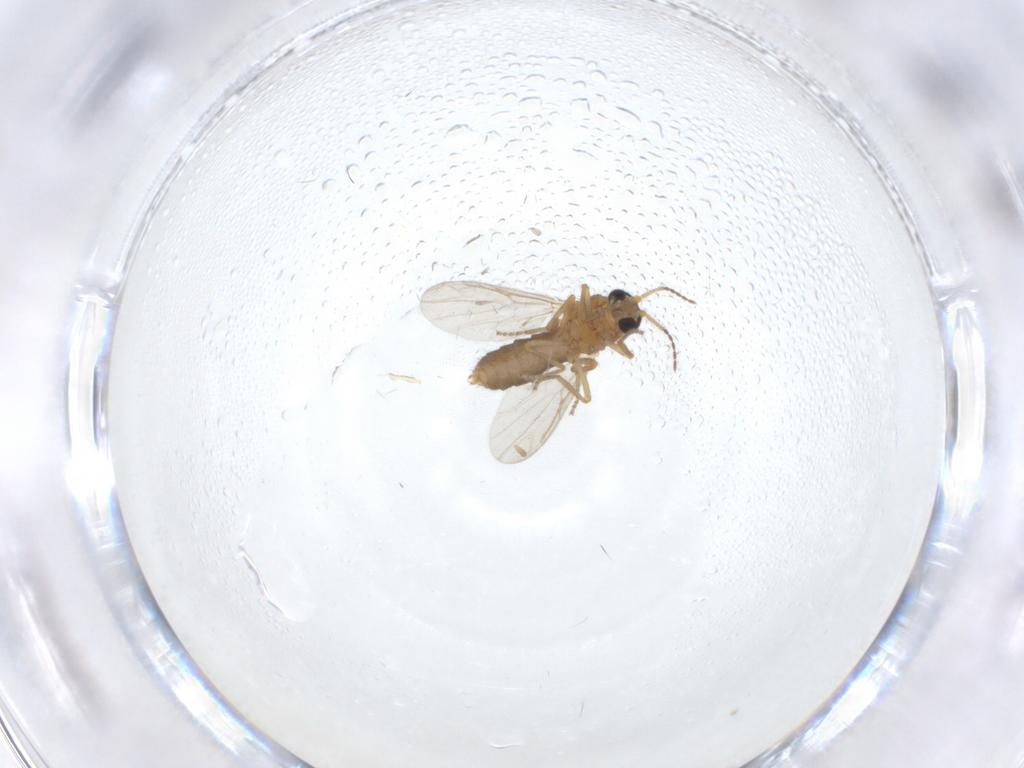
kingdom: Animalia
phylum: Arthropoda
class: Insecta
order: Diptera
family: Ceratopogonidae
